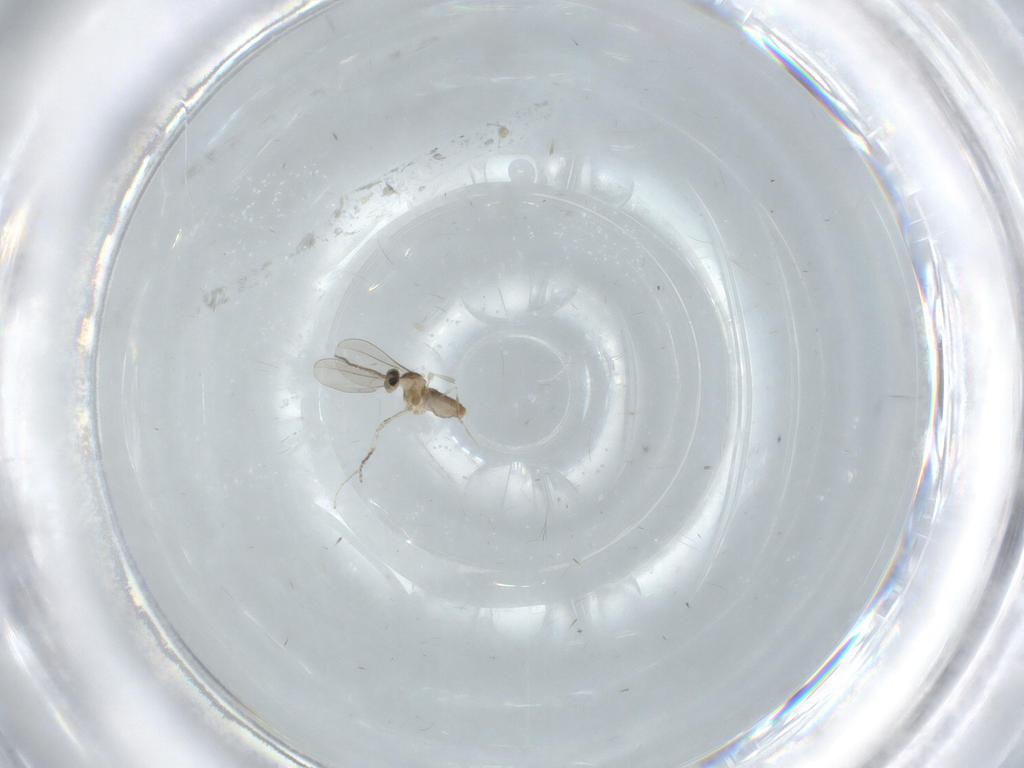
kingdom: Animalia
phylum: Arthropoda
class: Insecta
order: Diptera
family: Cecidomyiidae
